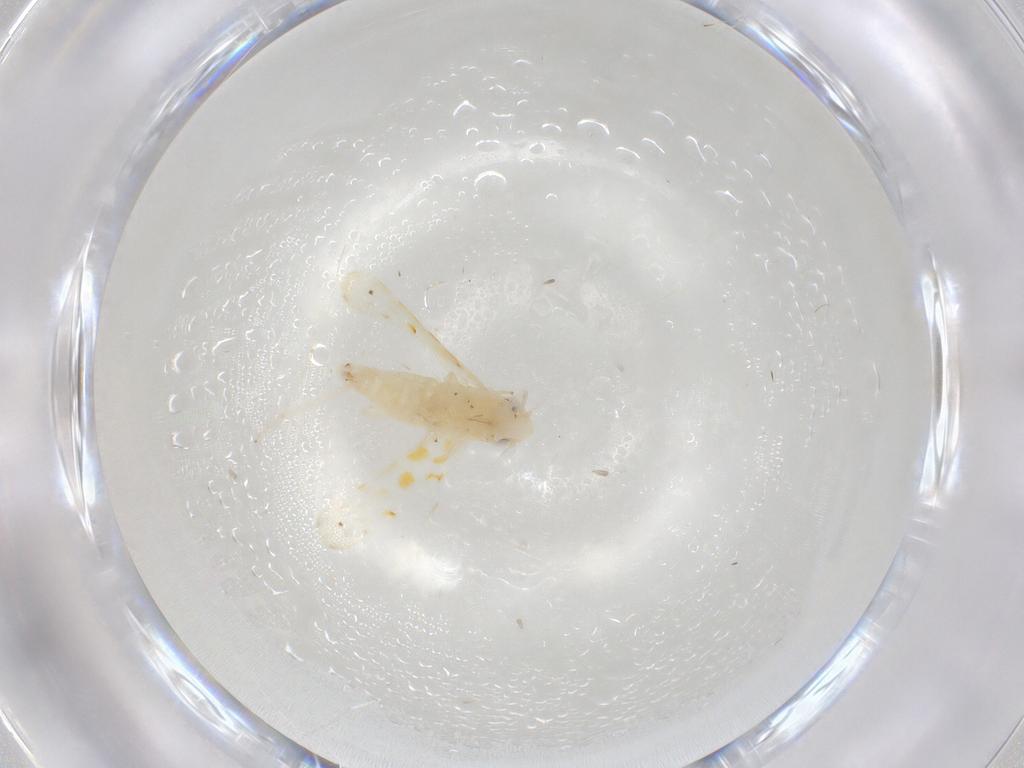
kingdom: Animalia
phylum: Arthropoda
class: Insecta
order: Hemiptera
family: Cicadellidae
